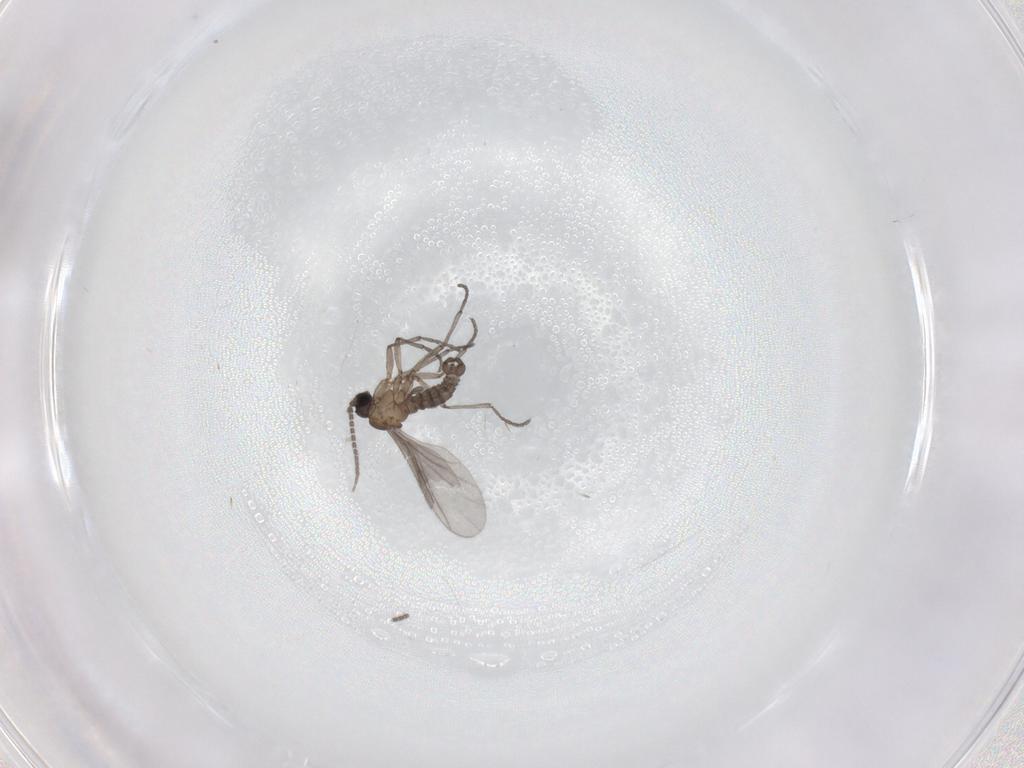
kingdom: Animalia
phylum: Arthropoda
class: Insecta
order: Diptera
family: Sciaridae
